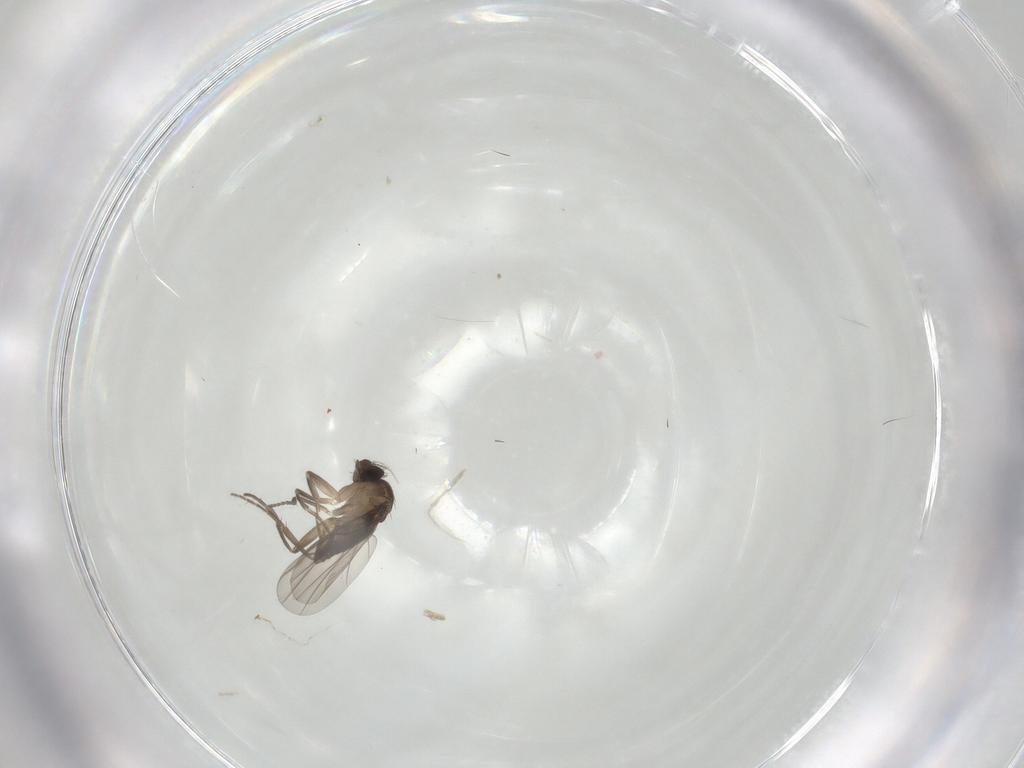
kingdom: Animalia
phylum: Arthropoda
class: Insecta
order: Diptera
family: Phoridae
